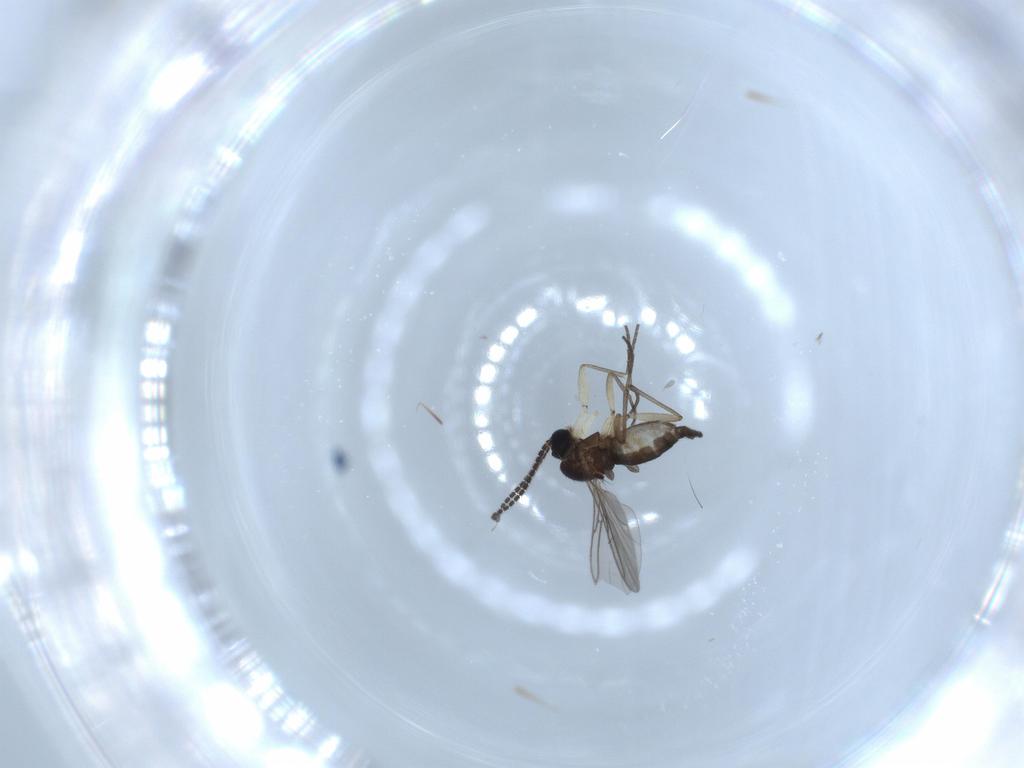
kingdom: Animalia
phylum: Arthropoda
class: Insecta
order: Diptera
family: Sciaridae
